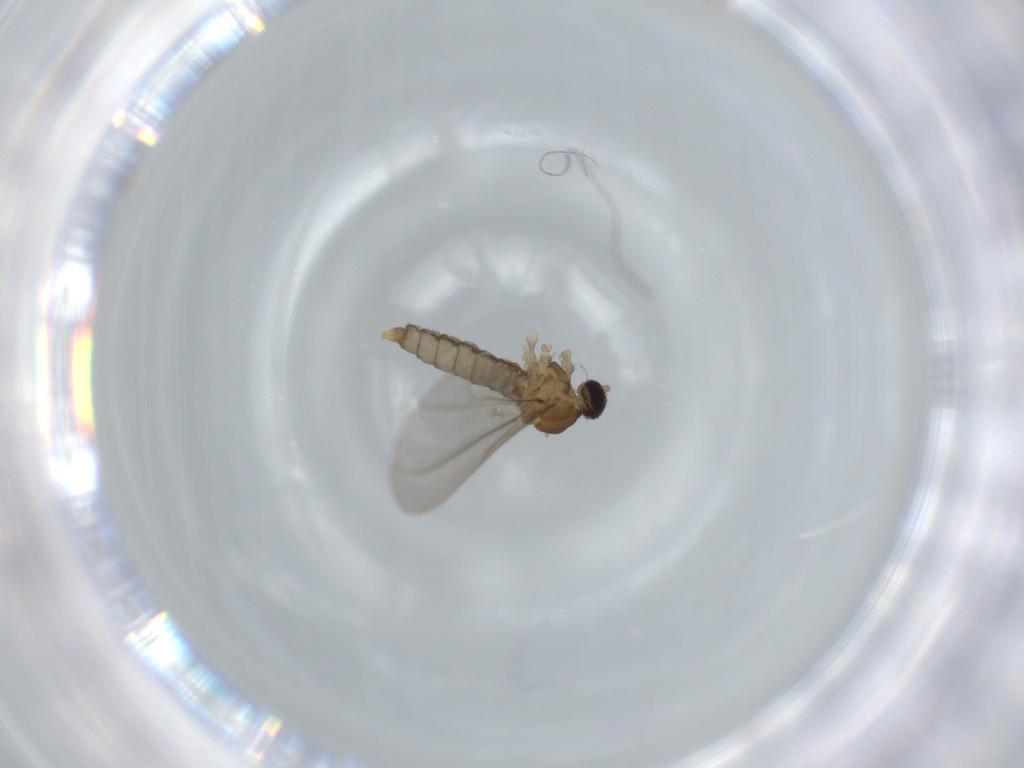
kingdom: Animalia
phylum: Arthropoda
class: Insecta
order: Diptera
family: Cecidomyiidae
